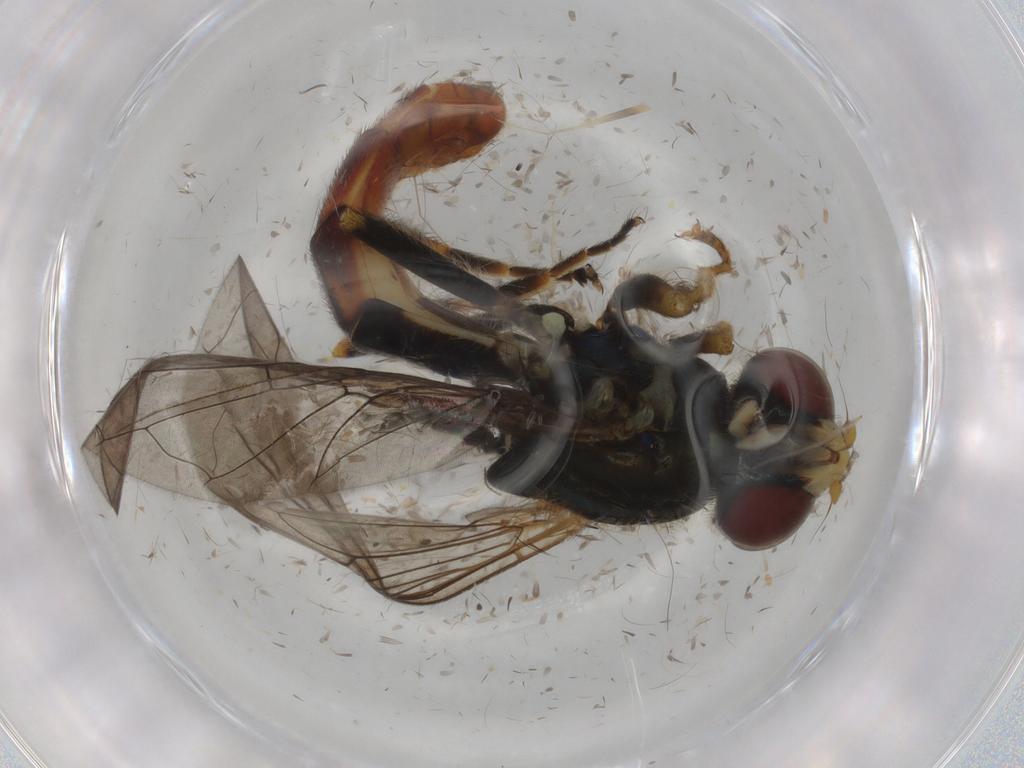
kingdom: Animalia
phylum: Arthropoda
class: Insecta
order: Diptera
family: Syrphidae
